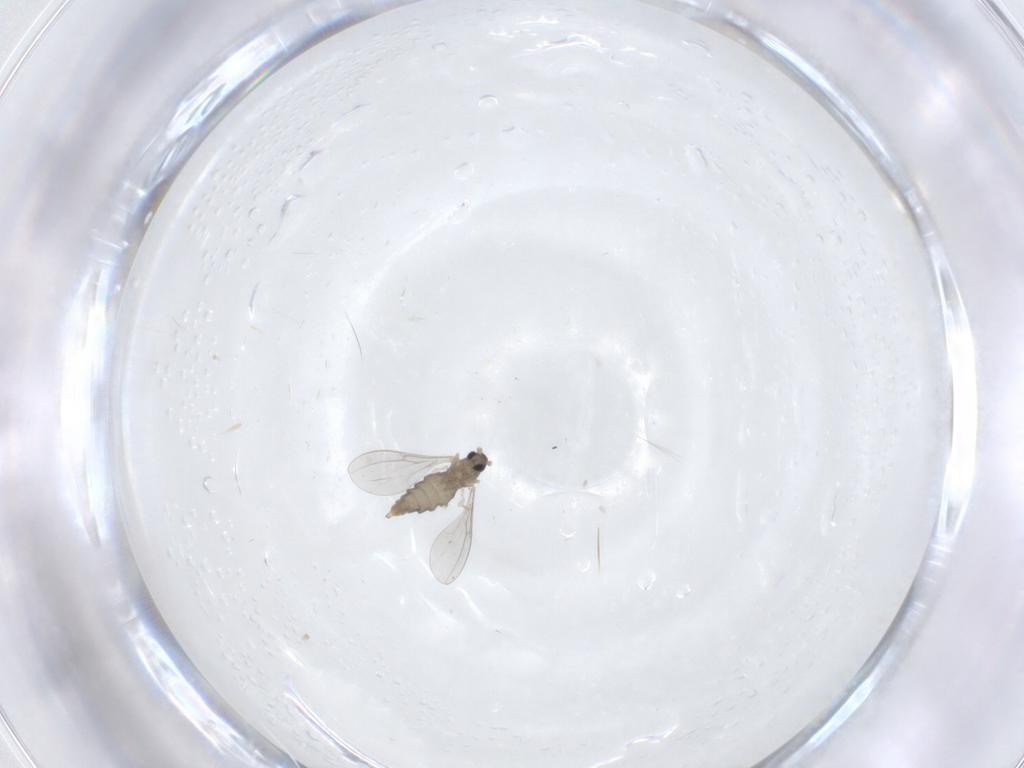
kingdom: Animalia
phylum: Arthropoda
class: Insecta
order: Diptera
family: Cecidomyiidae
